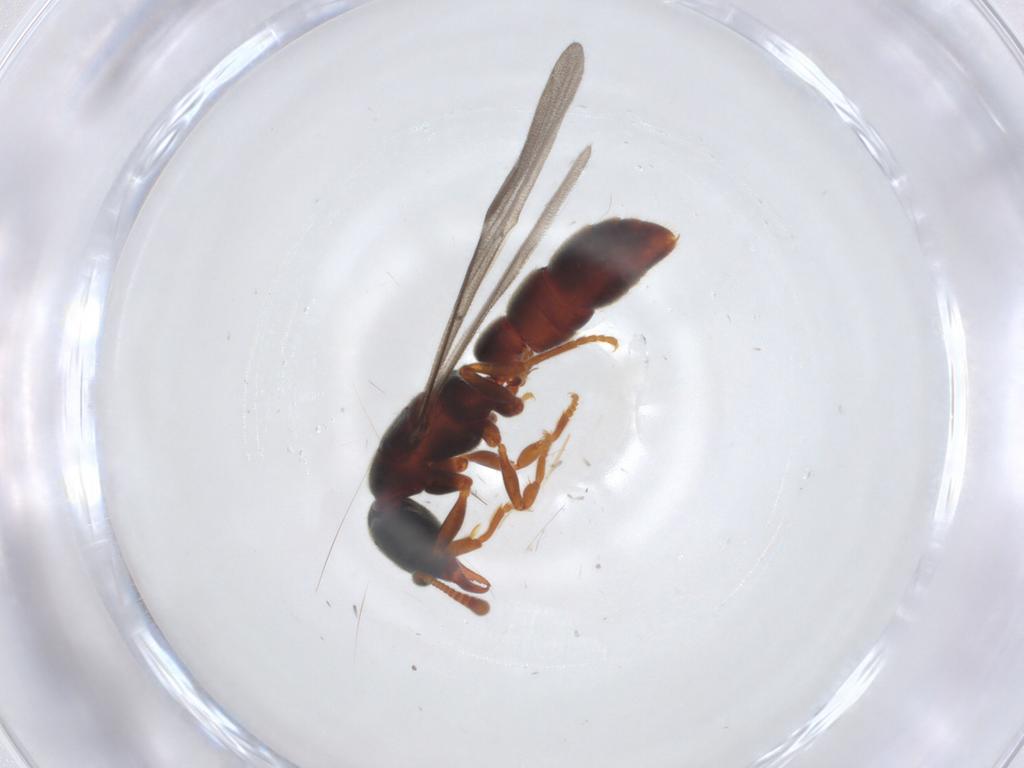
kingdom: Animalia
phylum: Arthropoda
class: Insecta
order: Hymenoptera
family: Formicidae
